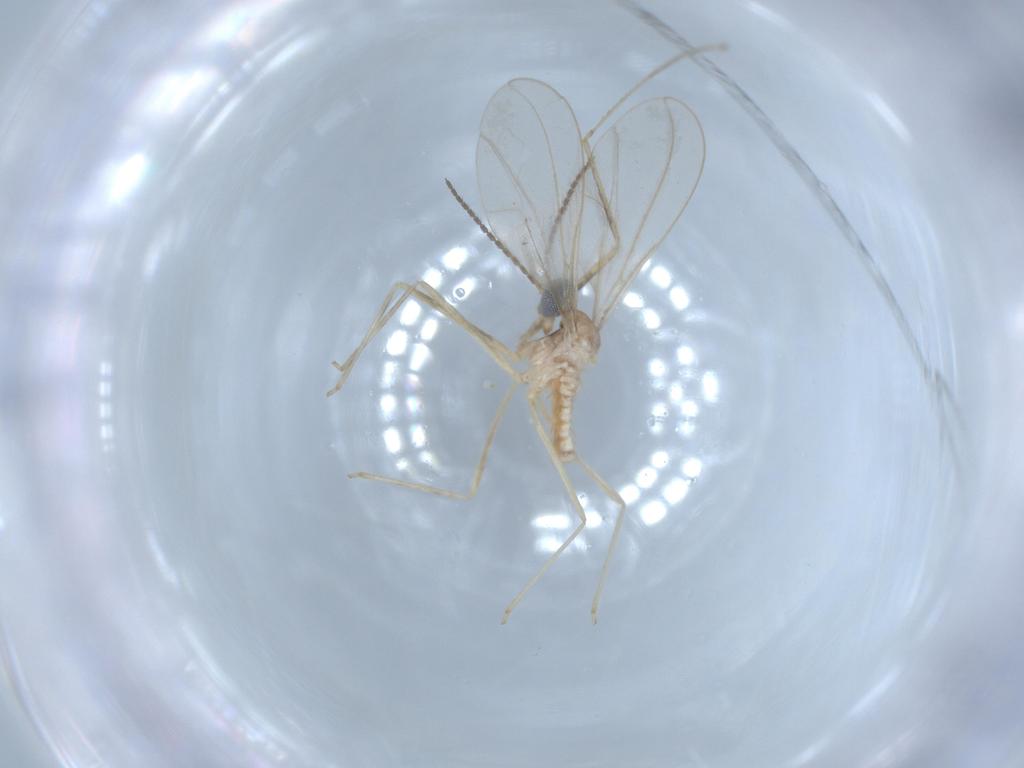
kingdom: Animalia
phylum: Arthropoda
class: Insecta
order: Diptera
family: Cecidomyiidae
